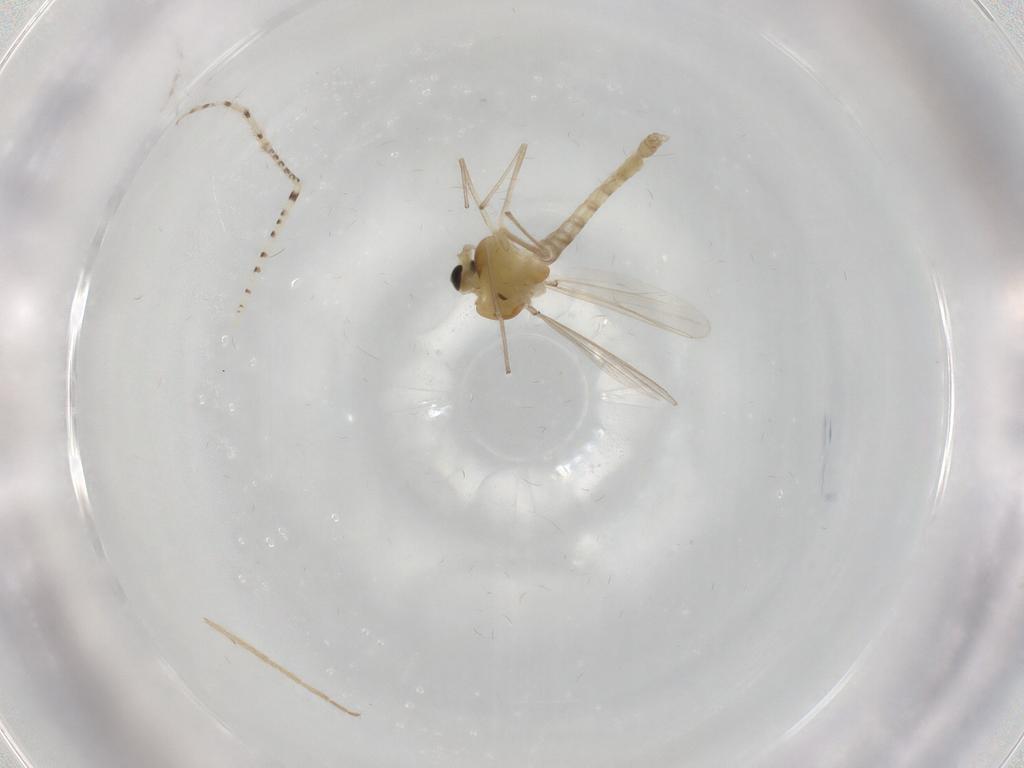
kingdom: Animalia
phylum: Arthropoda
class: Insecta
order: Diptera
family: Chironomidae
